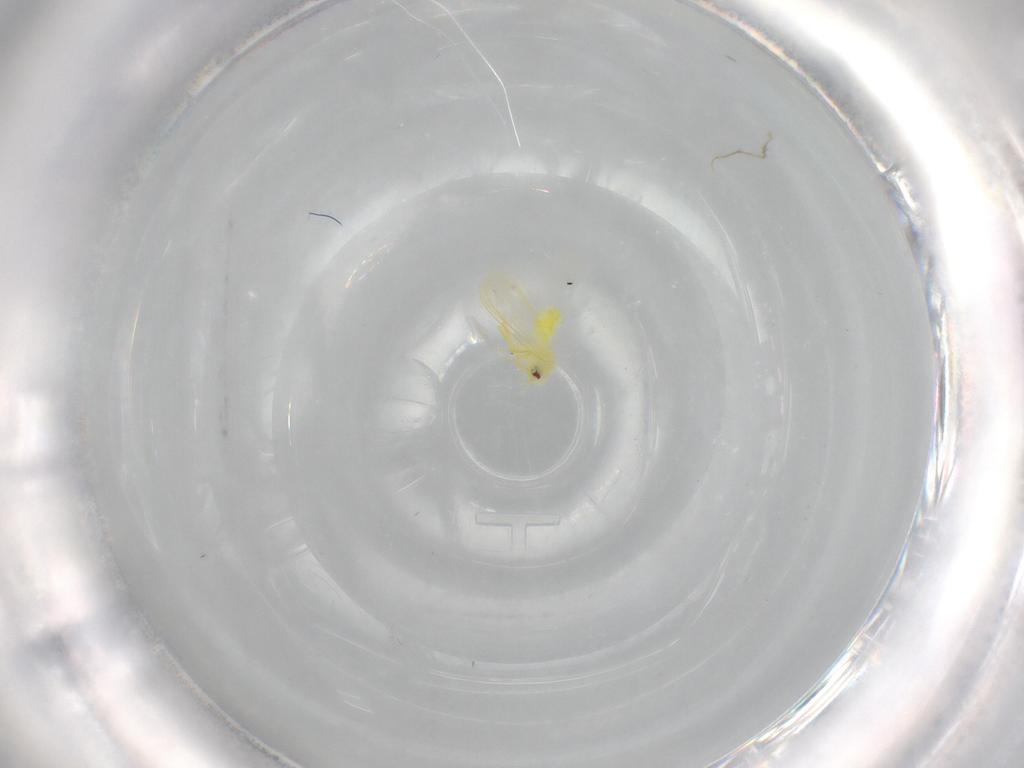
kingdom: Animalia
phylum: Arthropoda
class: Insecta
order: Hemiptera
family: Aleyrodidae
